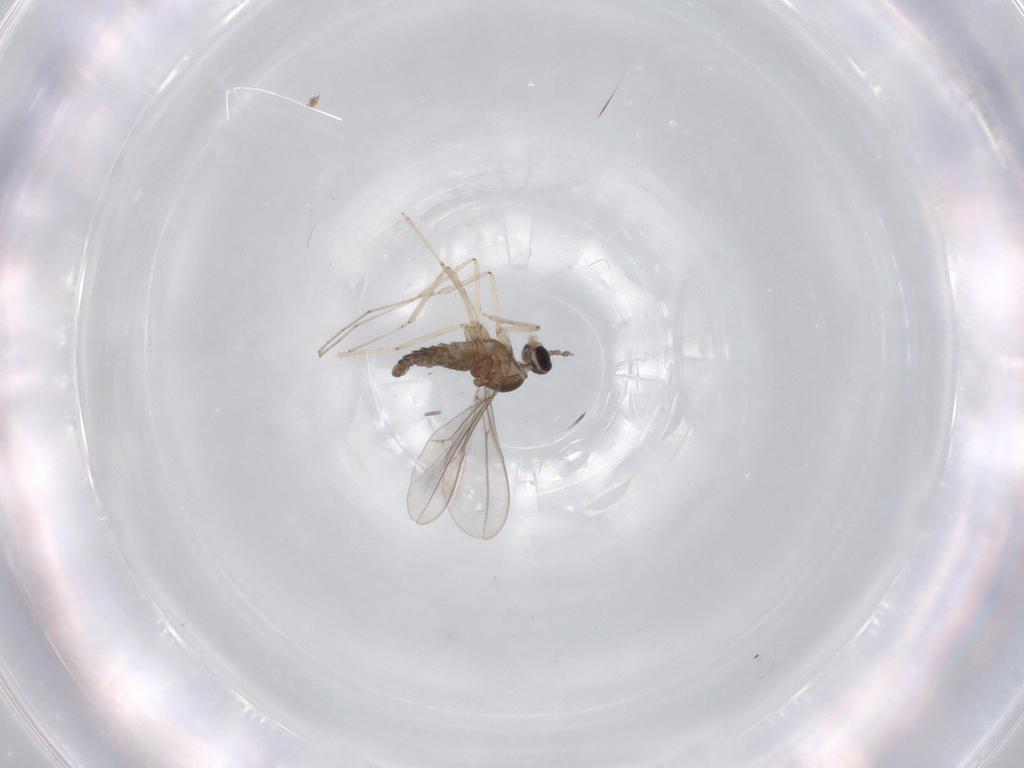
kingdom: Animalia
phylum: Arthropoda
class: Insecta
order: Diptera
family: Cecidomyiidae
